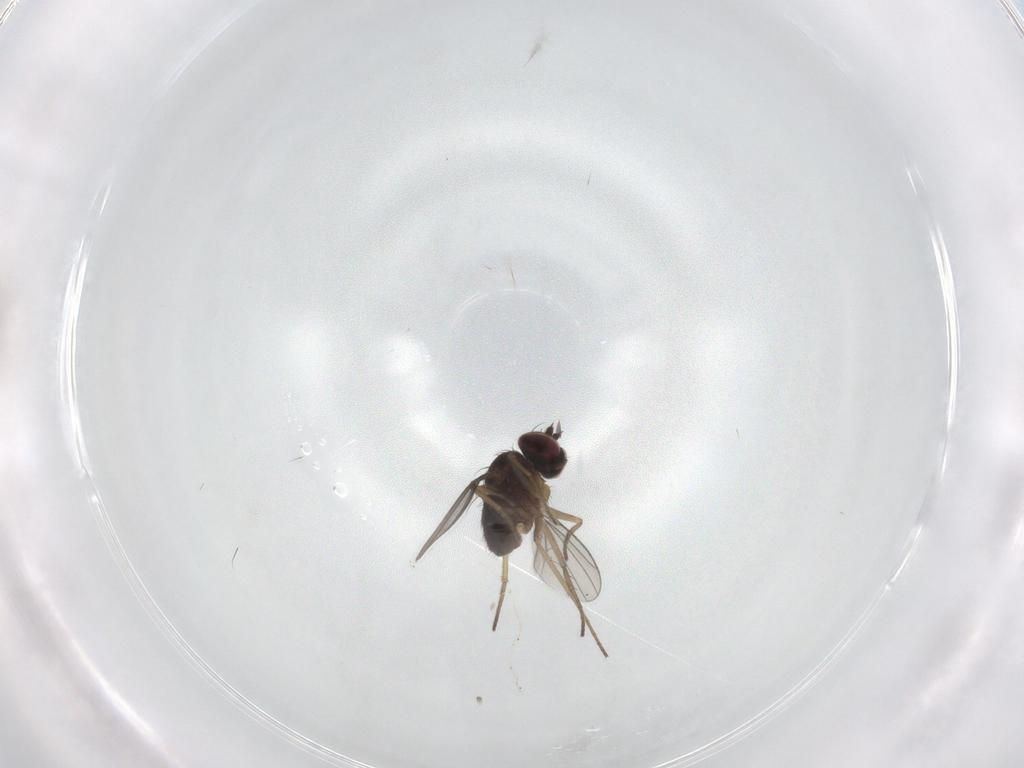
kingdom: Animalia
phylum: Arthropoda
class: Insecta
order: Diptera
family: Dolichopodidae
